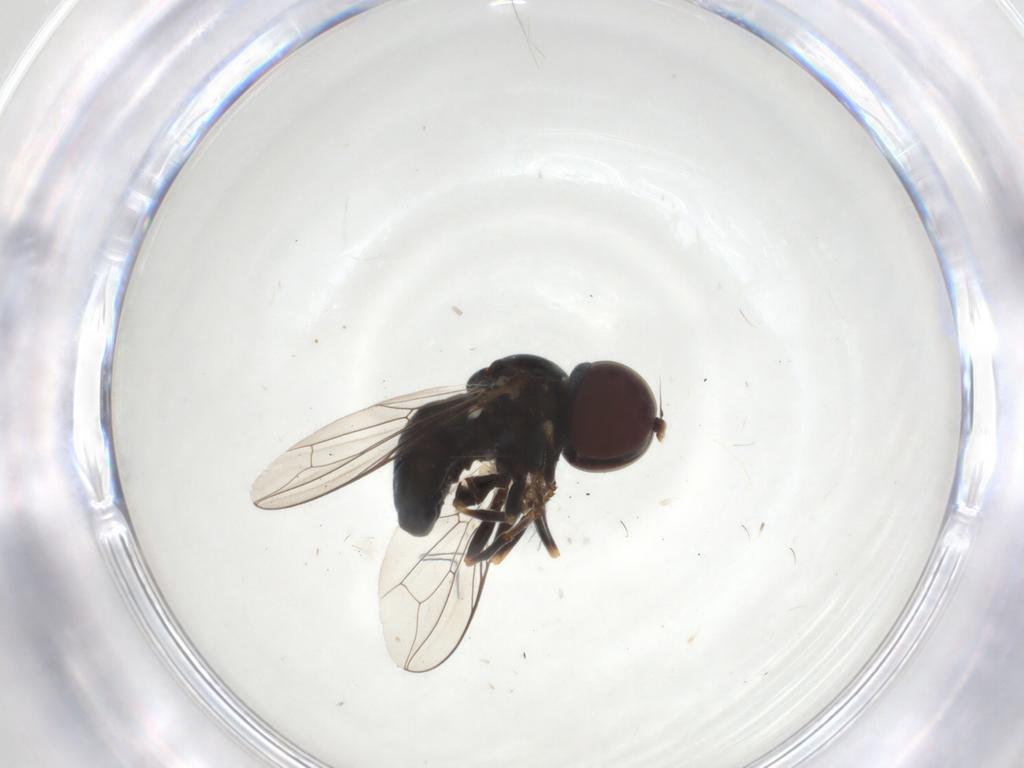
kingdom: Animalia
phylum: Arthropoda
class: Insecta
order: Diptera
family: Pipunculidae
